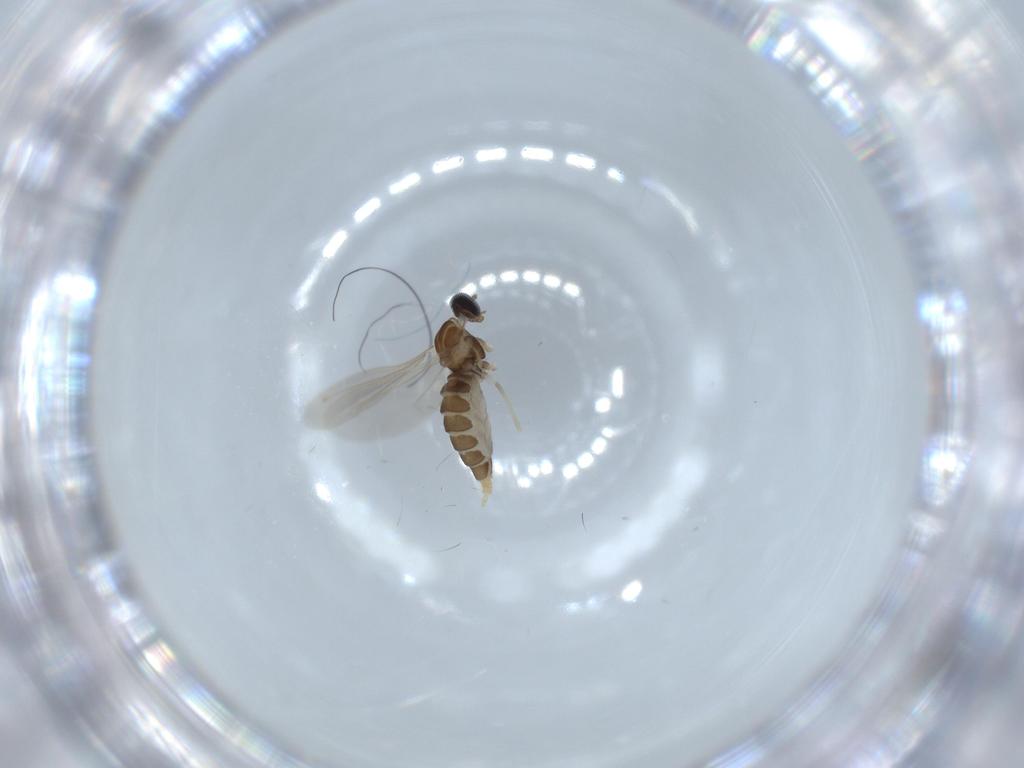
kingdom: Animalia
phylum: Arthropoda
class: Insecta
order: Diptera
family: Cecidomyiidae
